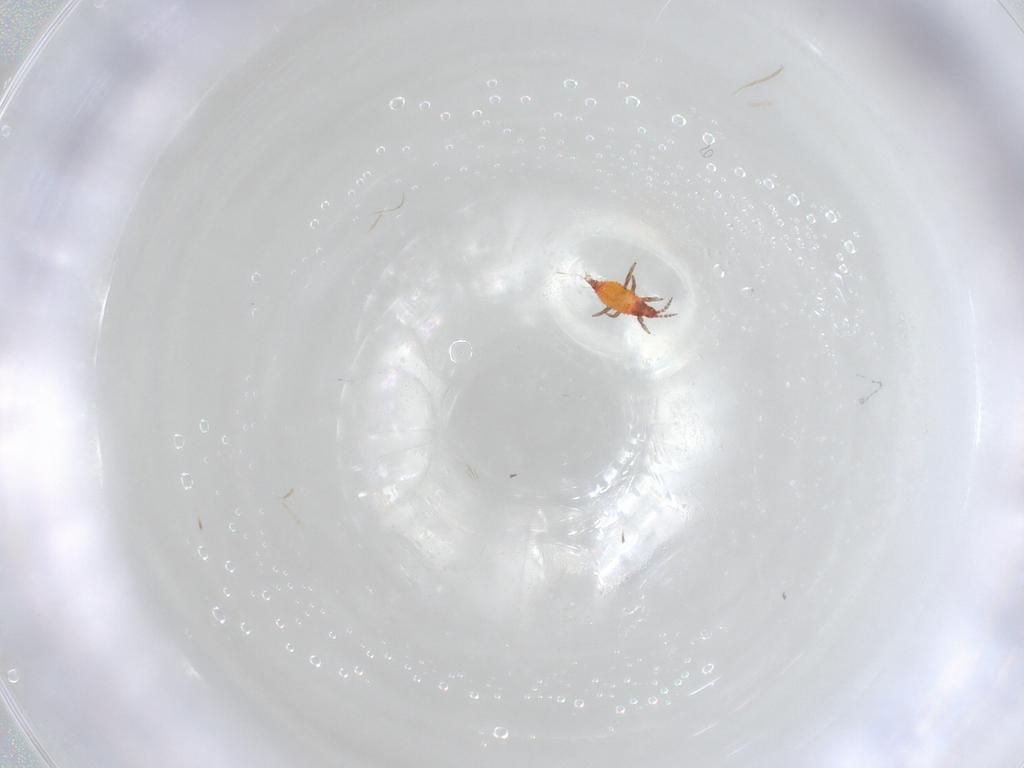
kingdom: Animalia
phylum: Arthropoda
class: Insecta
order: Thysanoptera
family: Phlaeothripidae
